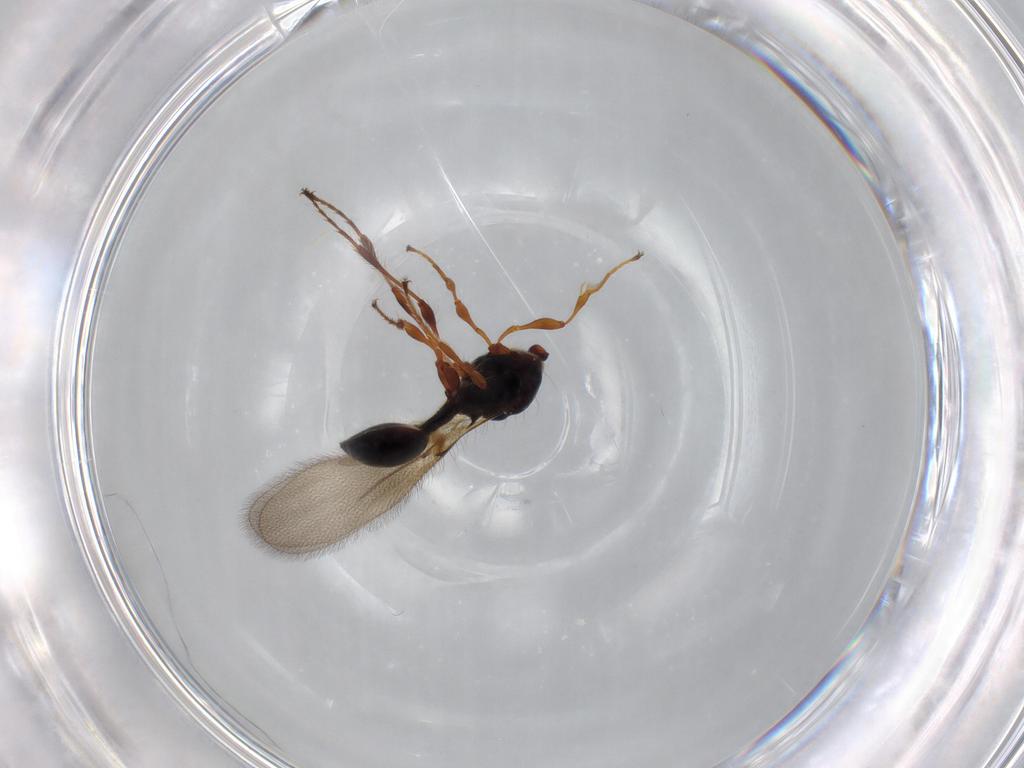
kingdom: Animalia
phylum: Arthropoda
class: Insecta
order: Hymenoptera
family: Diapriidae
